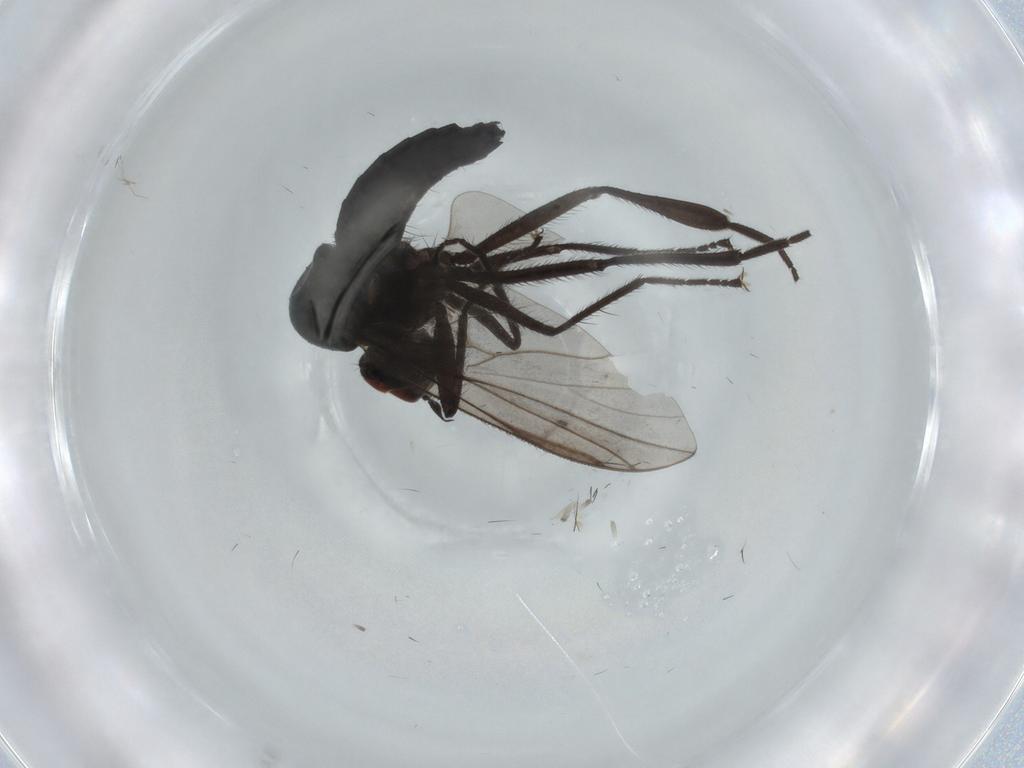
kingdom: Animalia
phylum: Arthropoda
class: Insecta
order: Diptera
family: Hybotidae
